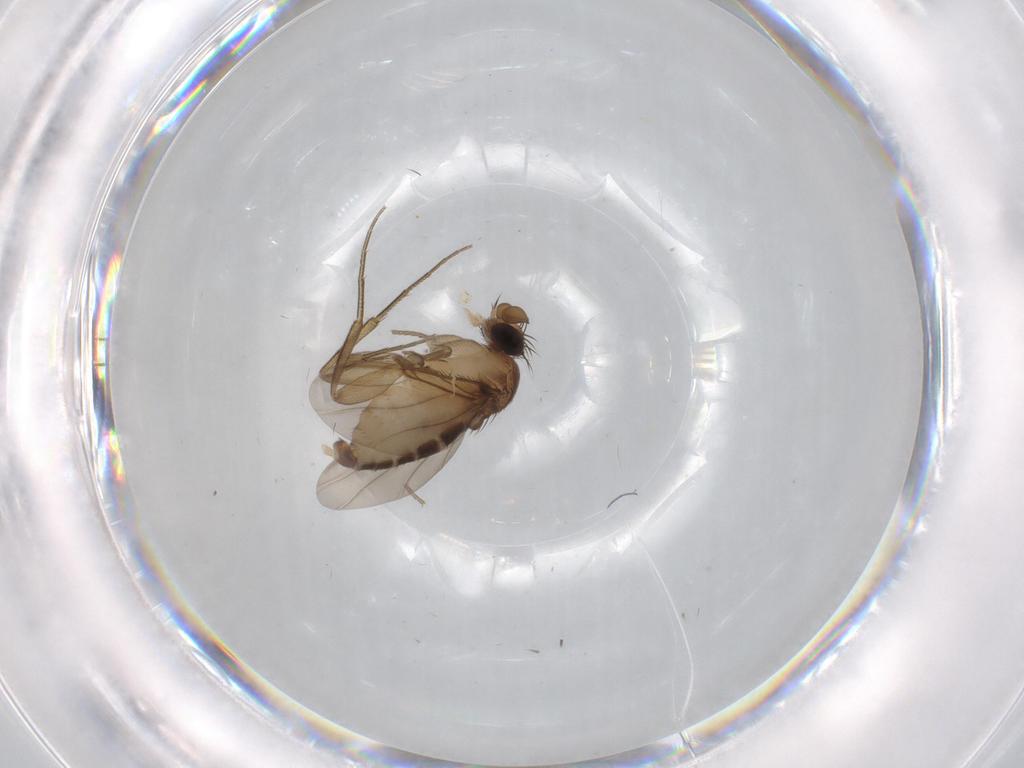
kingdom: Animalia
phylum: Arthropoda
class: Insecta
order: Diptera
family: Phoridae
